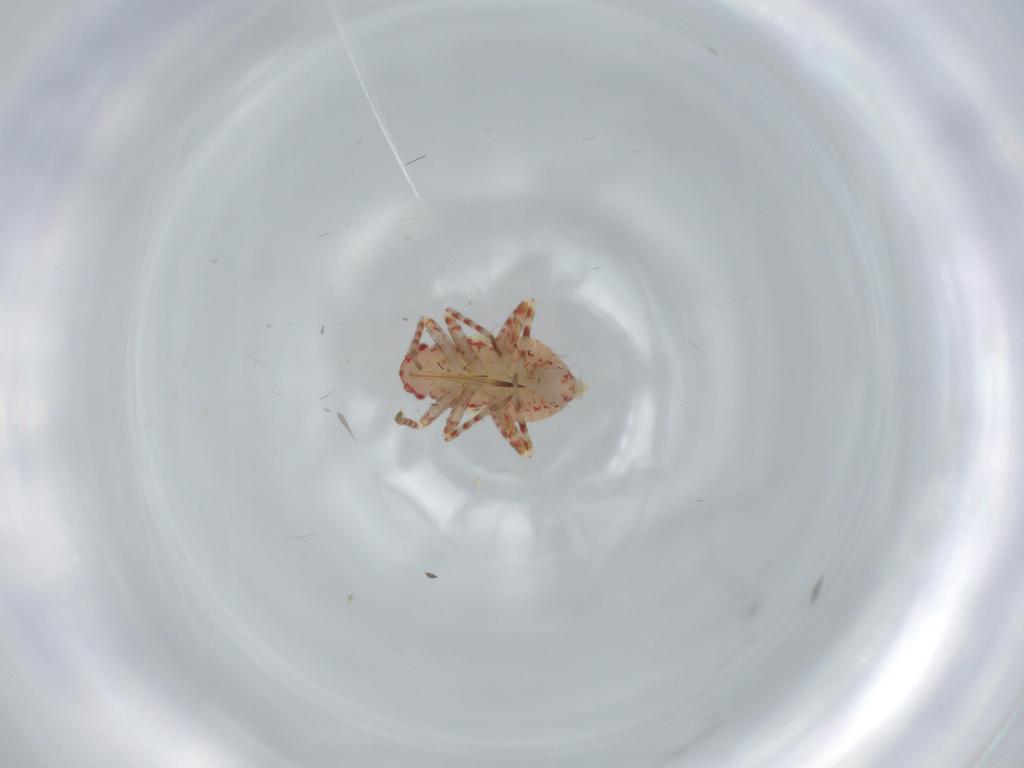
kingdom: Animalia
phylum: Arthropoda
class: Insecta
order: Hemiptera
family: Miridae
